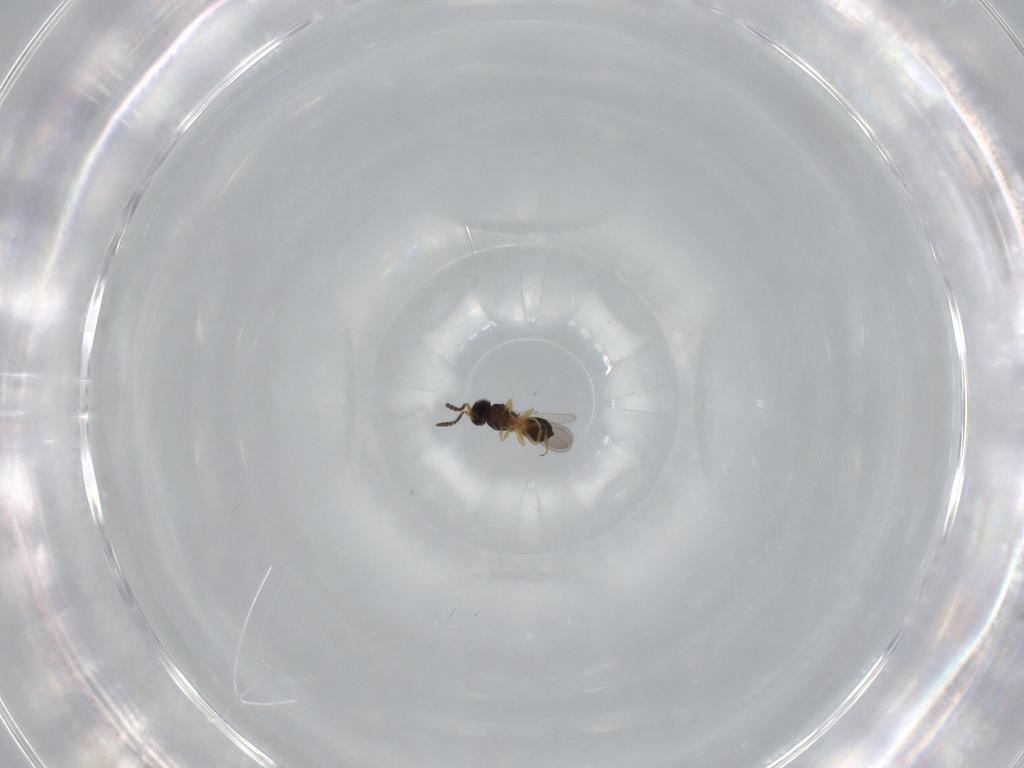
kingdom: Animalia
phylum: Arthropoda
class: Insecta
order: Hymenoptera
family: Scelionidae
